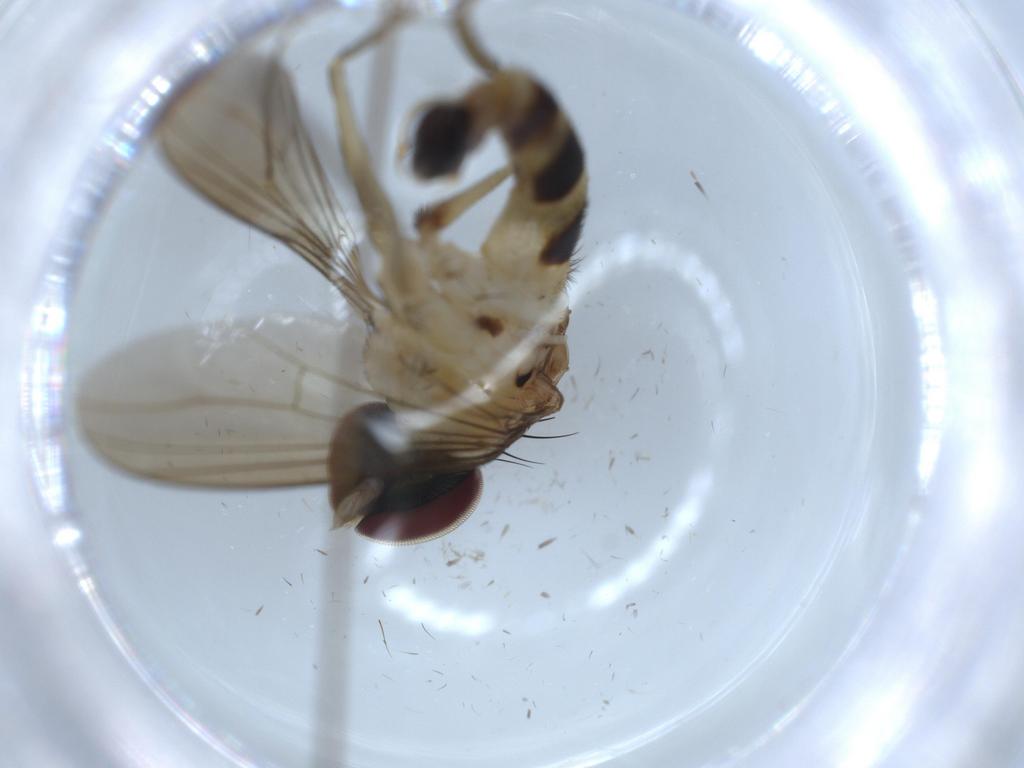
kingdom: Animalia
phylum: Arthropoda
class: Insecta
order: Diptera
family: Dolichopodidae
